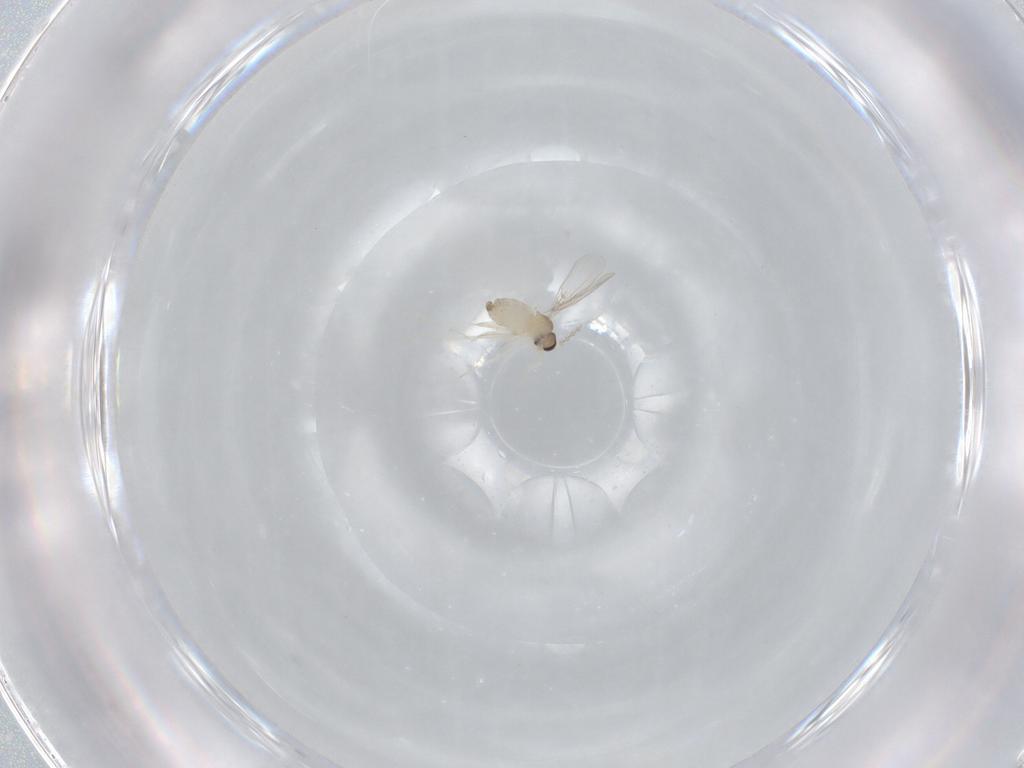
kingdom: Animalia
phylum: Arthropoda
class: Insecta
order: Diptera
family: Cecidomyiidae
